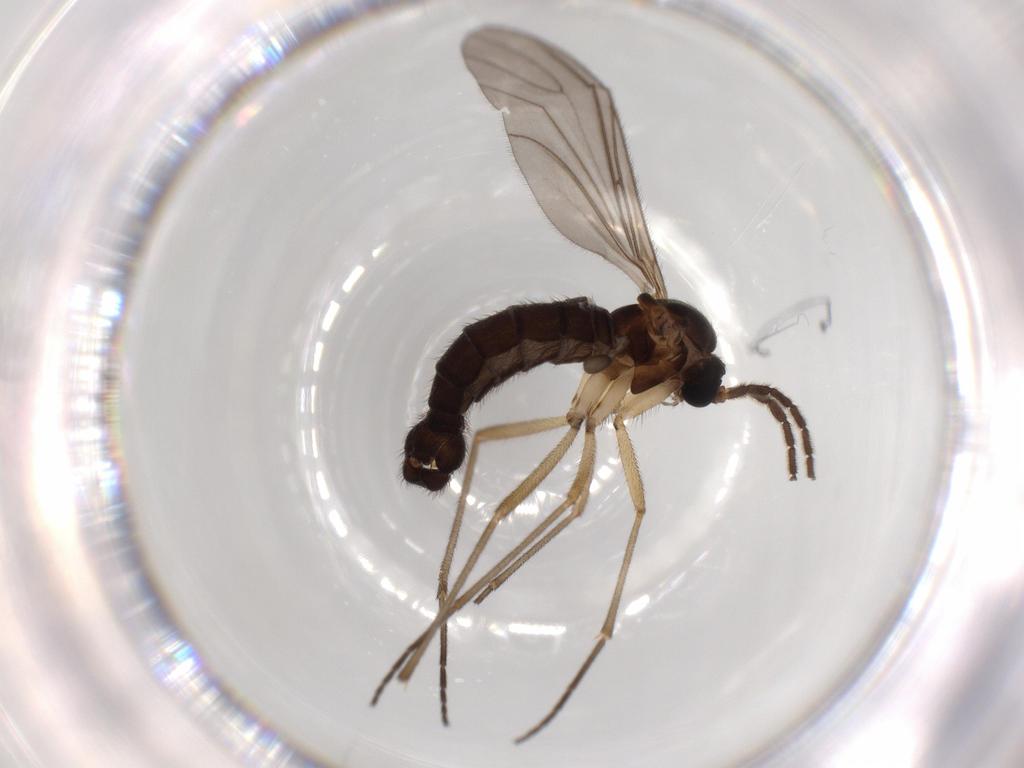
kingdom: Animalia
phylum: Arthropoda
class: Insecta
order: Diptera
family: Sciaridae
